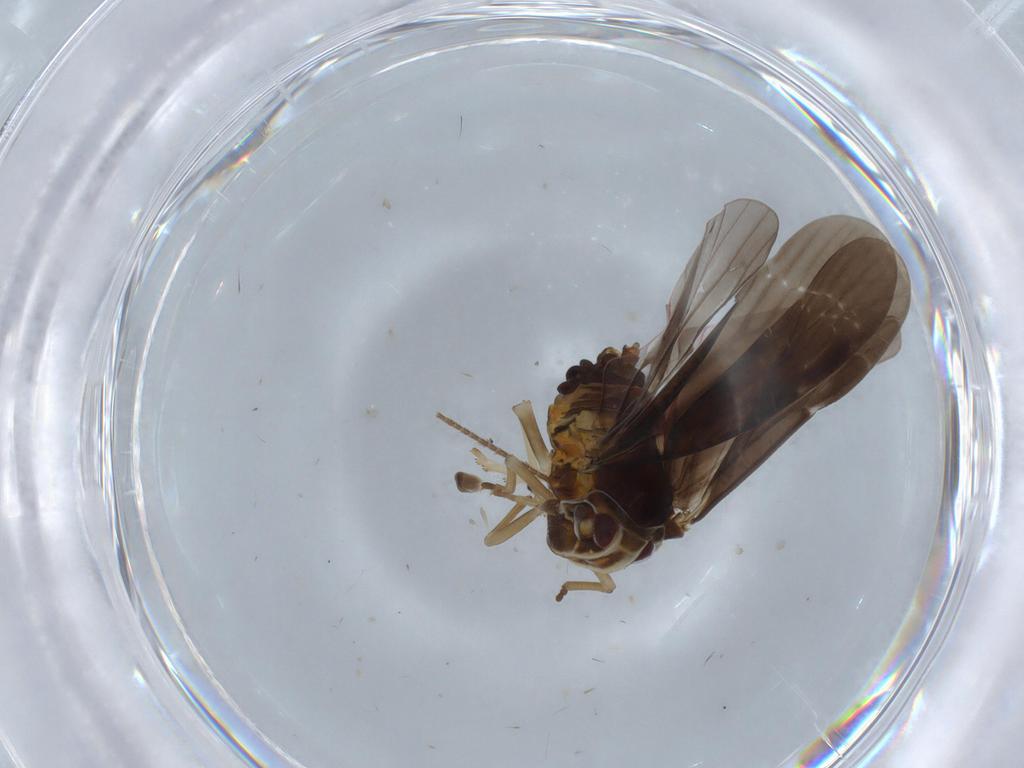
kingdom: Animalia
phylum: Arthropoda
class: Insecta
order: Hemiptera
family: Derbidae
